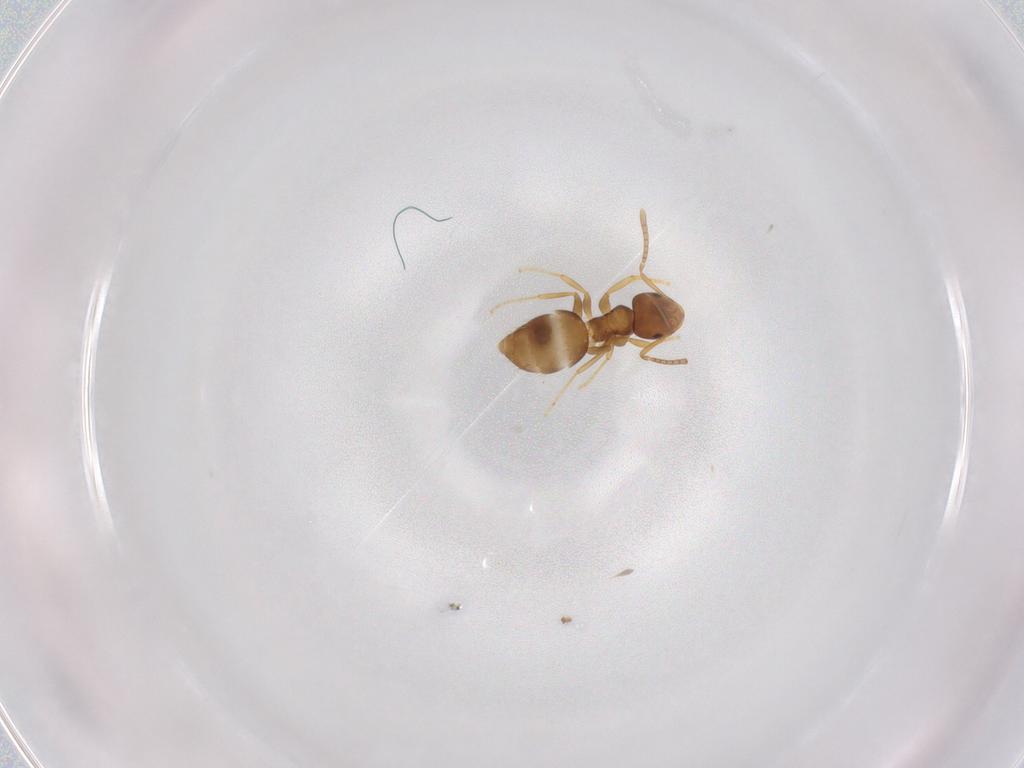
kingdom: Animalia
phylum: Arthropoda
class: Insecta
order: Hymenoptera
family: Formicidae
